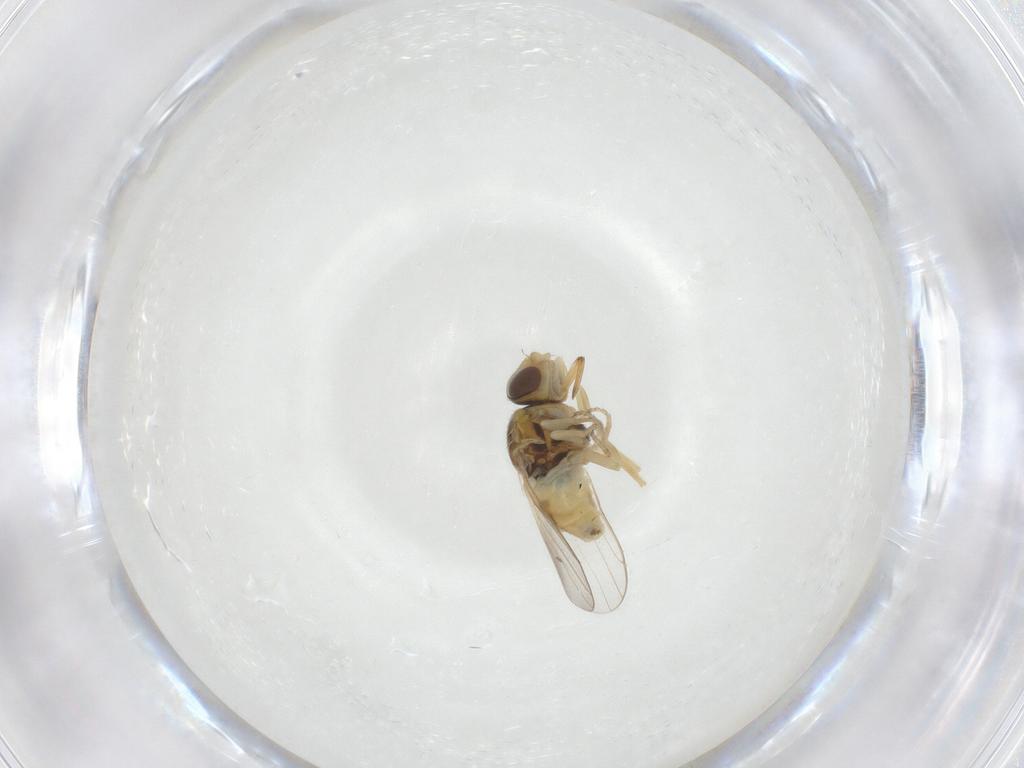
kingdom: Animalia
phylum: Arthropoda
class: Insecta
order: Diptera
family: Chloropidae
